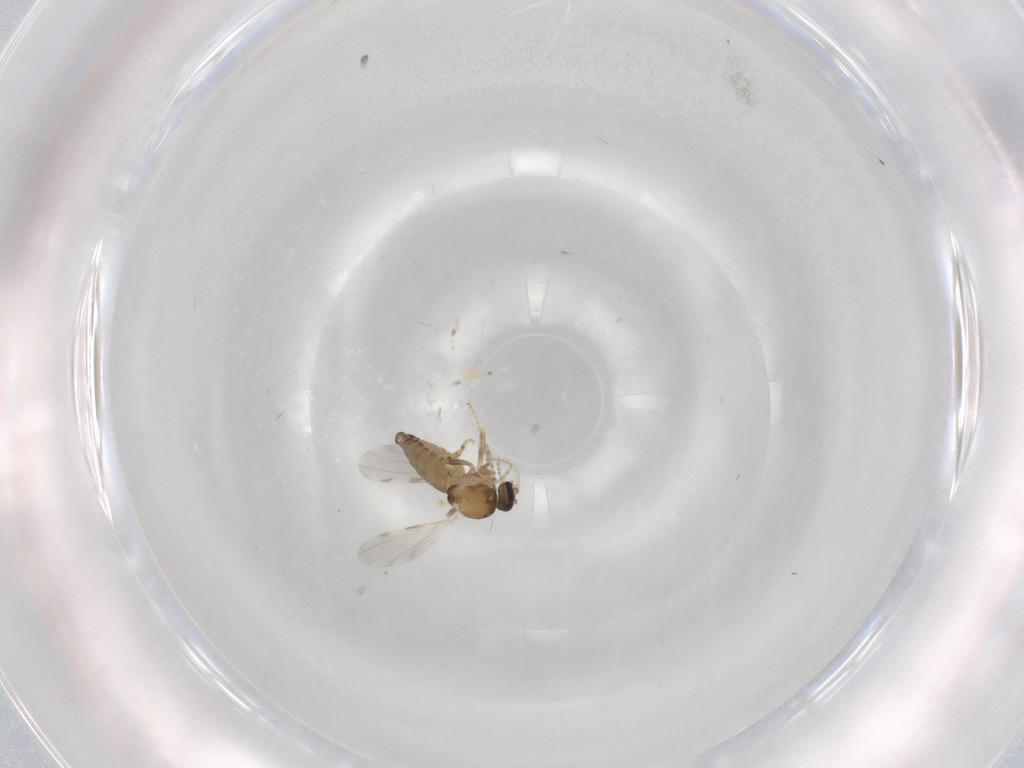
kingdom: Animalia
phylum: Arthropoda
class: Insecta
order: Diptera
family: Ceratopogonidae
